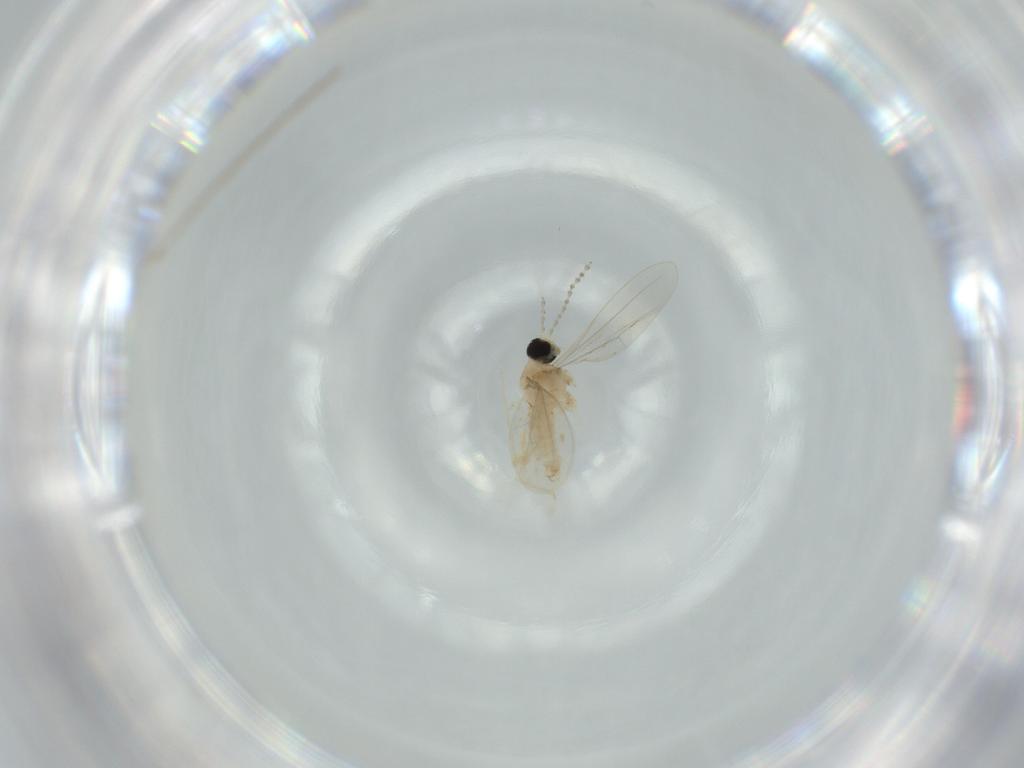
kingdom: Animalia
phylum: Arthropoda
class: Insecta
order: Diptera
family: Cecidomyiidae
